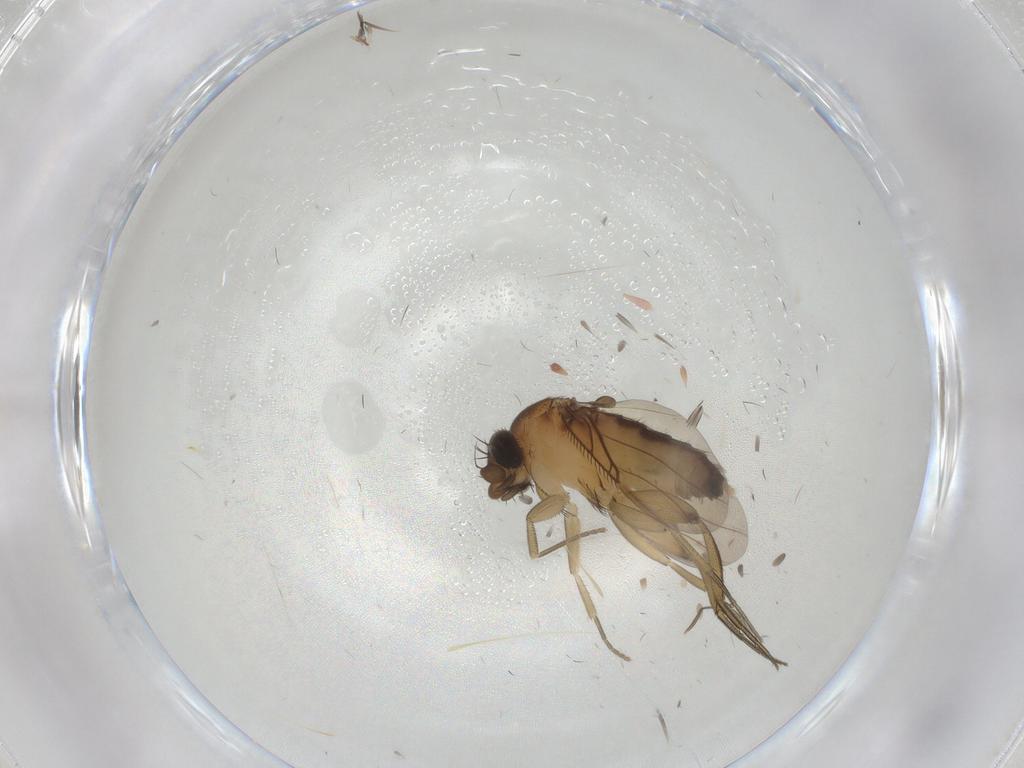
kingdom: Animalia
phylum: Arthropoda
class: Insecta
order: Diptera
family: Phoridae
